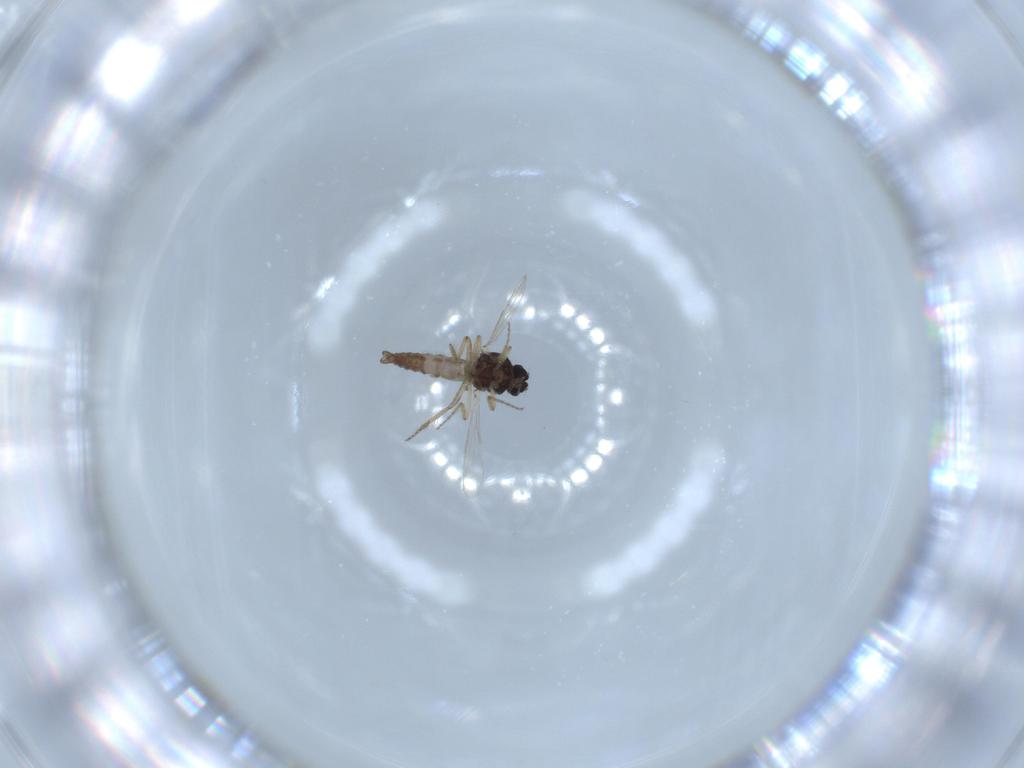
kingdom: Animalia
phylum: Arthropoda
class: Insecta
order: Diptera
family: Ceratopogonidae
